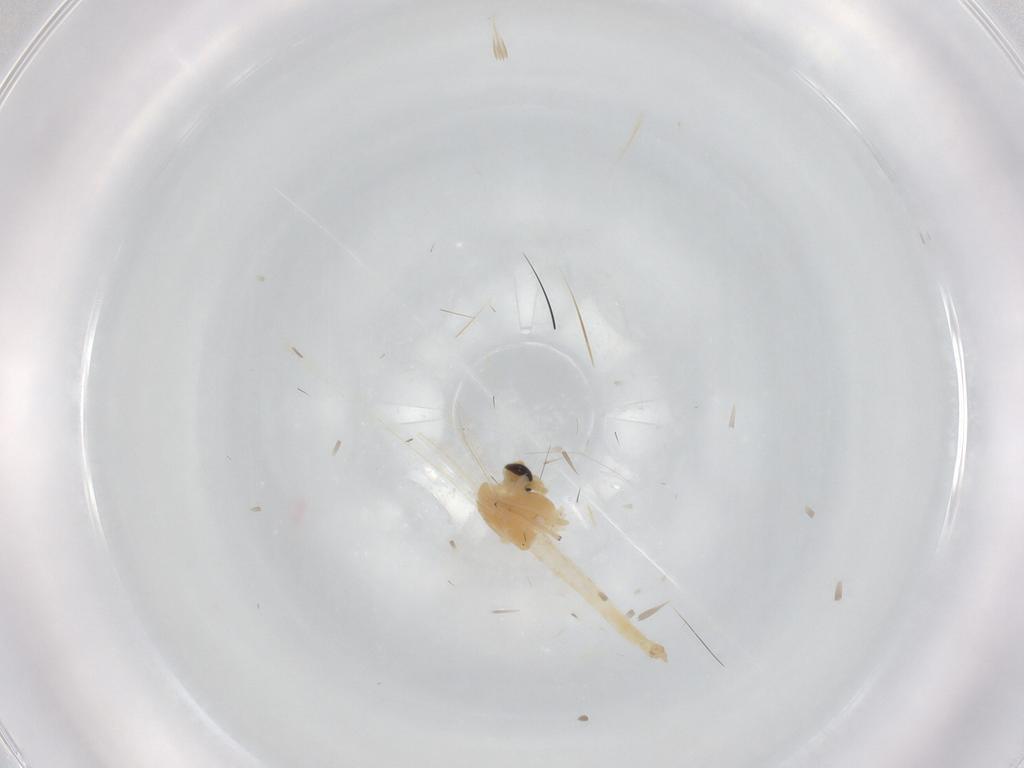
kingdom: Animalia
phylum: Arthropoda
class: Insecta
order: Diptera
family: Chironomidae
